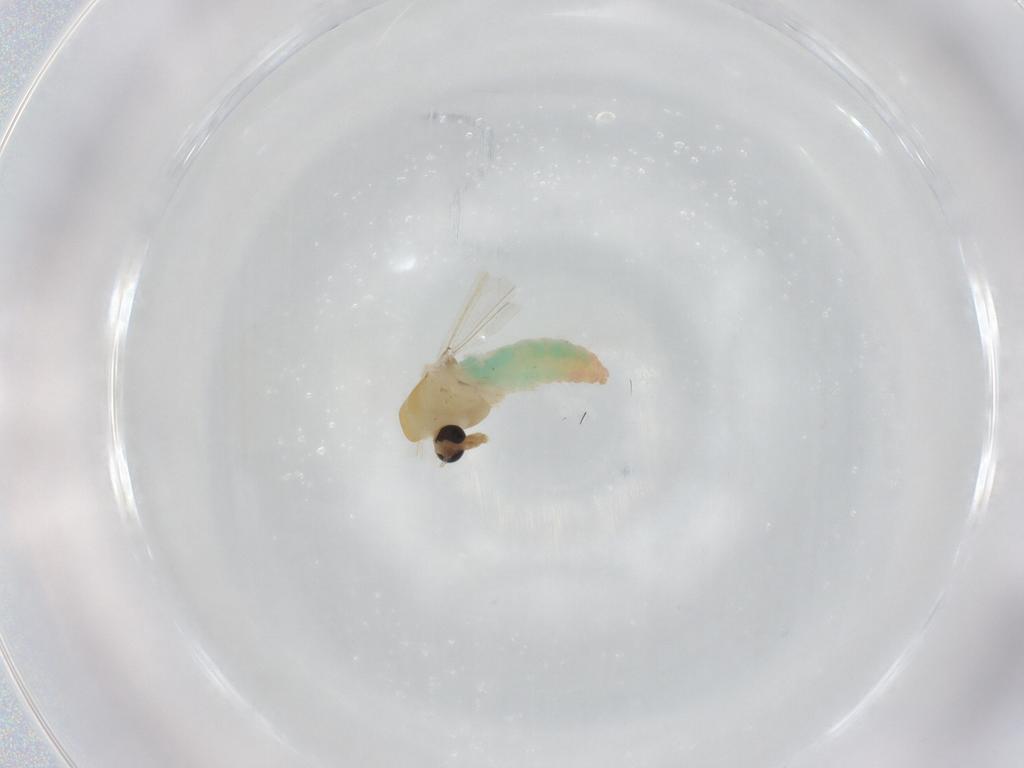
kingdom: Animalia
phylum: Arthropoda
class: Insecta
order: Diptera
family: Chironomidae
